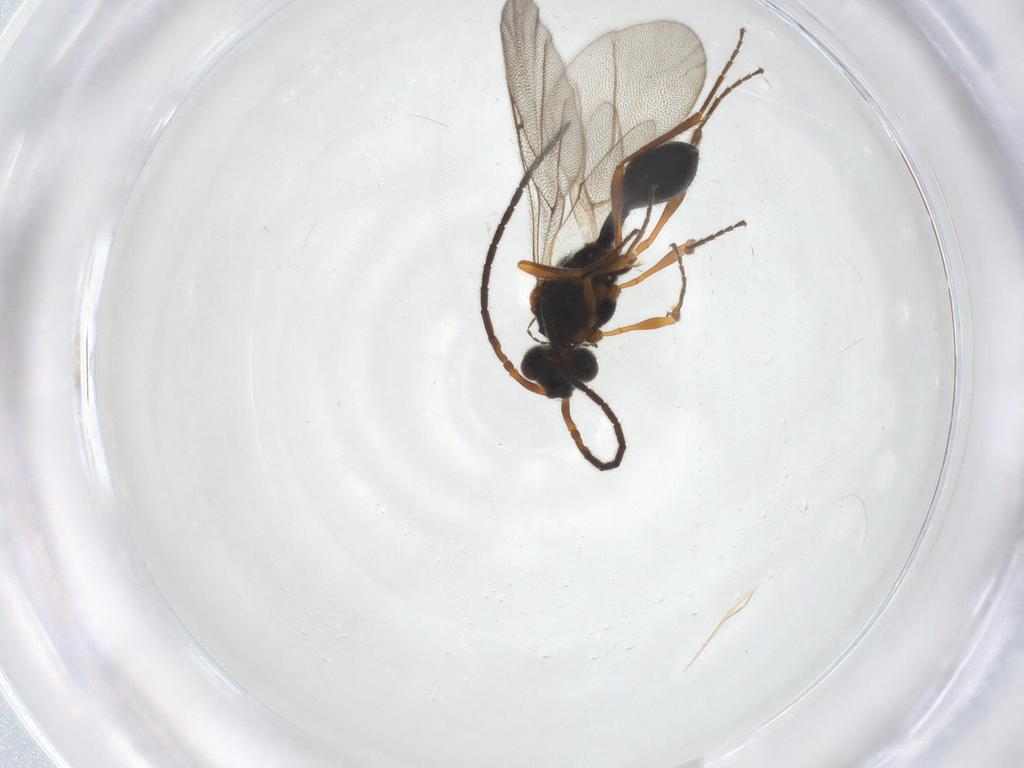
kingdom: Animalia
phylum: Arthropoda
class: Insecta
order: Hymenoptera
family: Diapriidae
